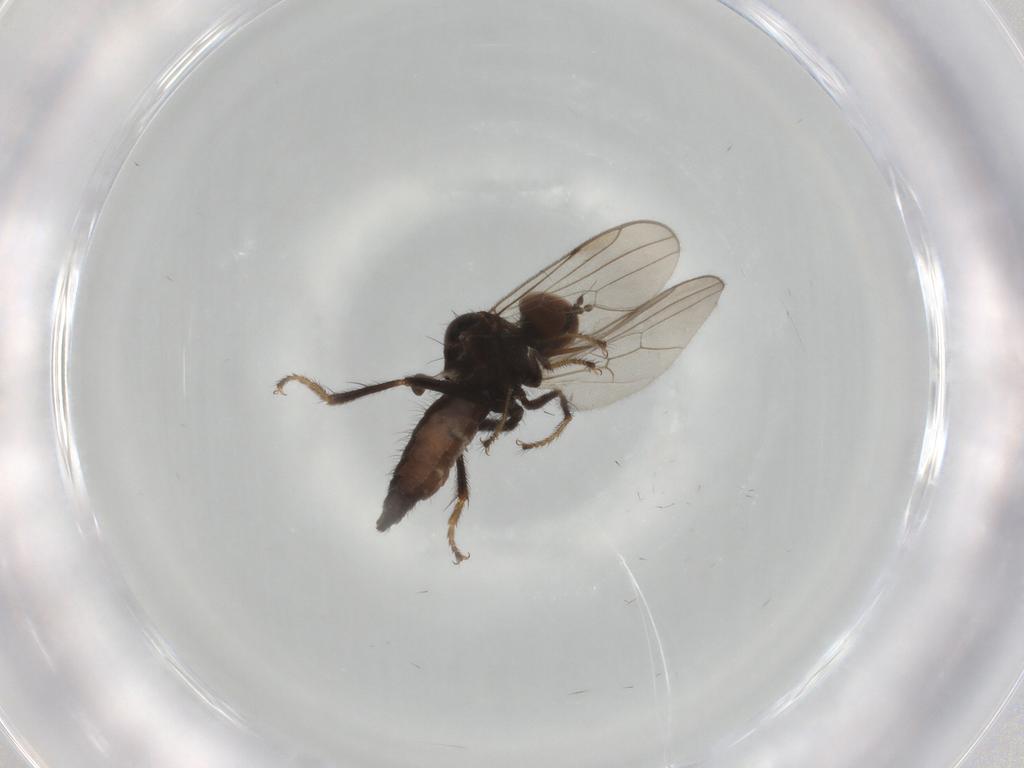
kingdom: Animalia
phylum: Arthropoda
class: Insecta
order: Diptera
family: Hybotidae
